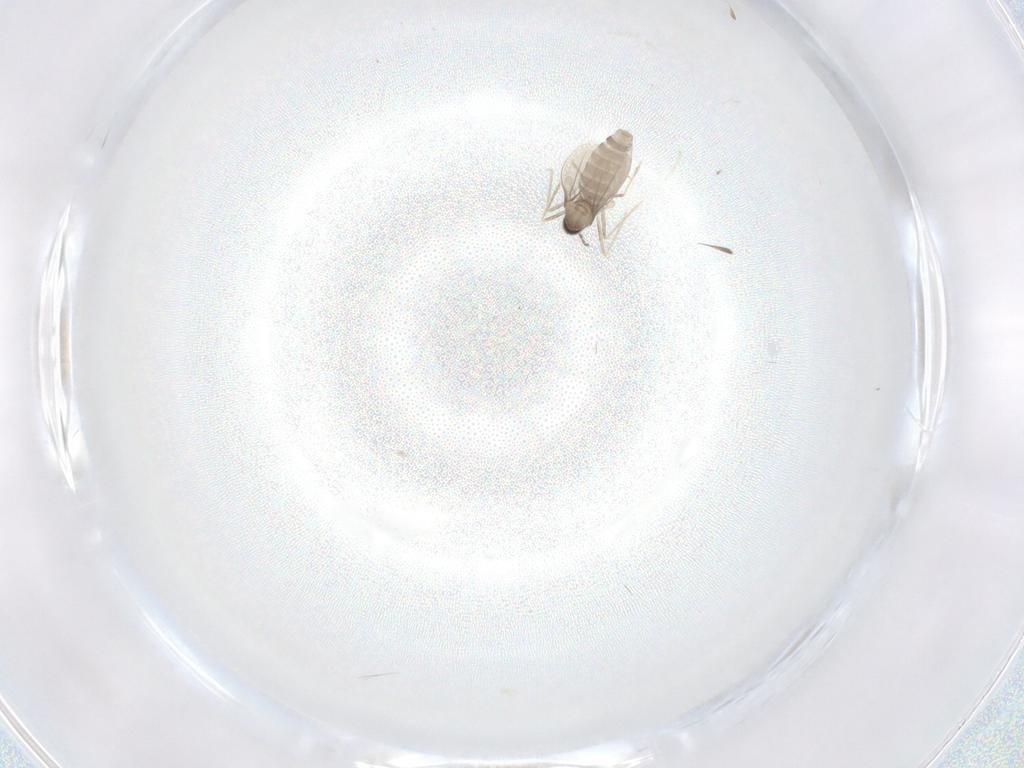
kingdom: Animalia
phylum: Arthropoda
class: Insecta
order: Diptera
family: Cecidomyiidae
